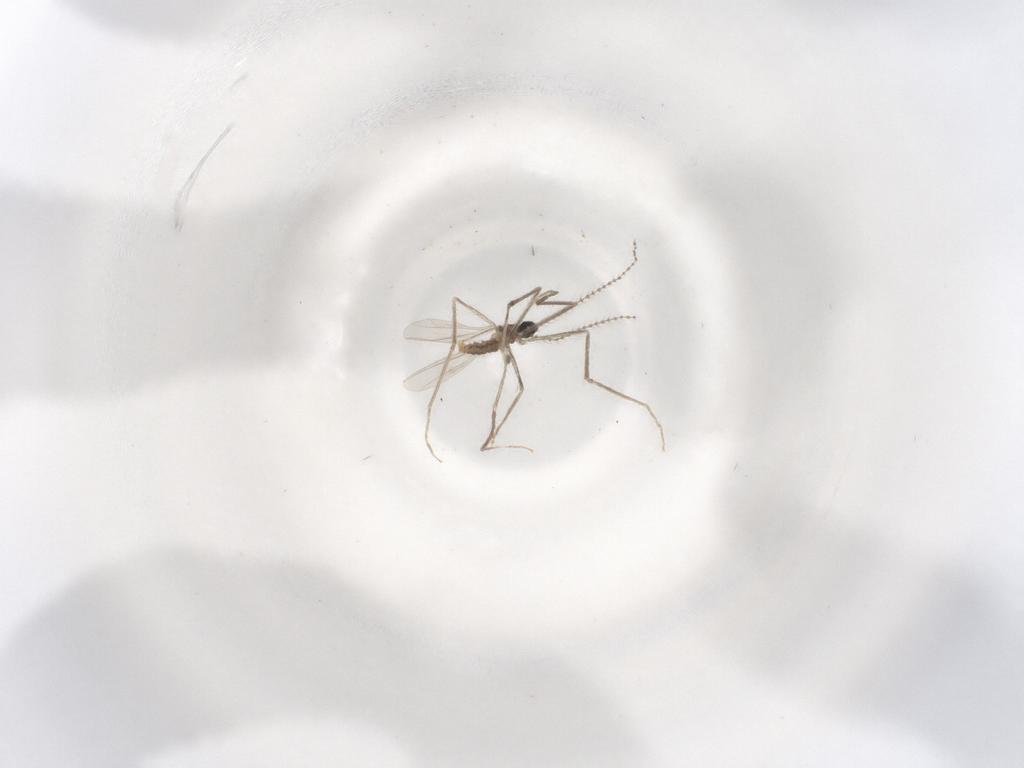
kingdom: Animalia
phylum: Arthropoda
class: Insecta
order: Diptera
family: Cecidomyiidae
